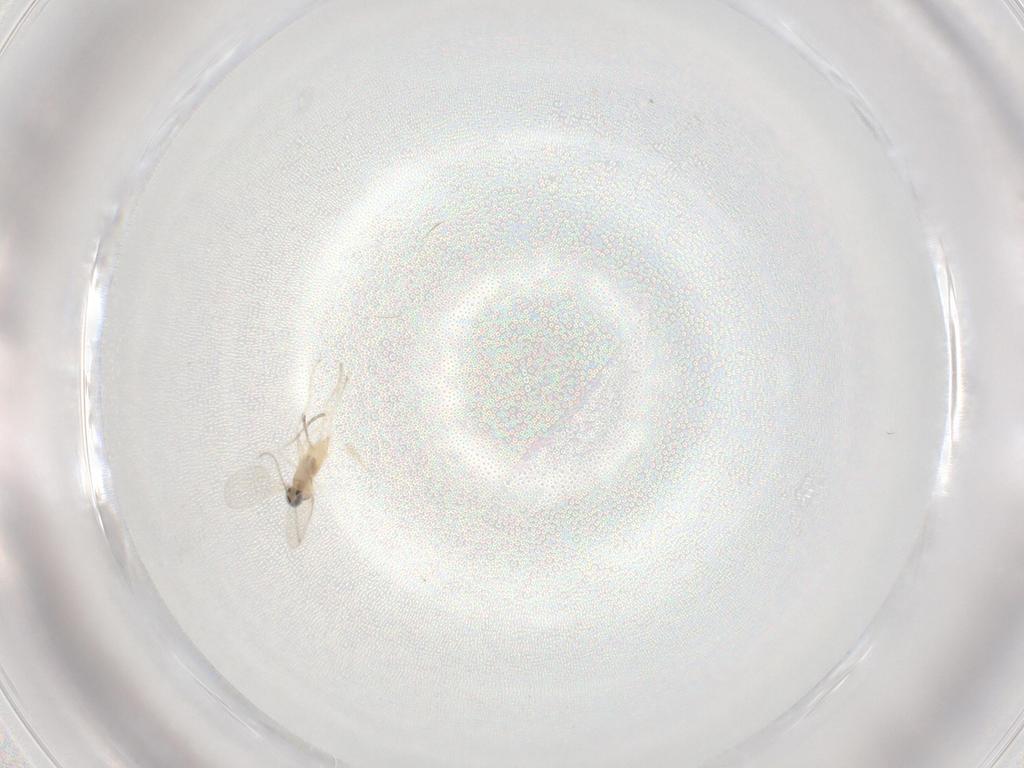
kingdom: Animalia
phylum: Arthropoda
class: Insecta
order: Diptera
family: Cecidomyiidae
